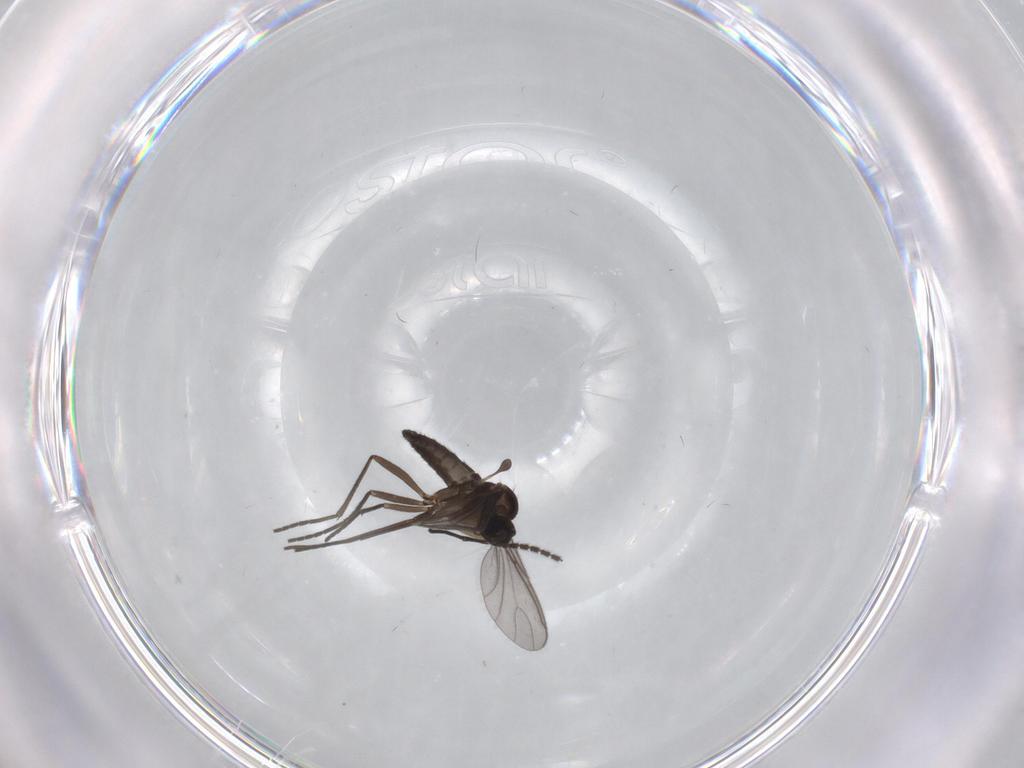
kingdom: Animalia
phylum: Arthropoda
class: Insecta
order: Diptera
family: Sciaridae
